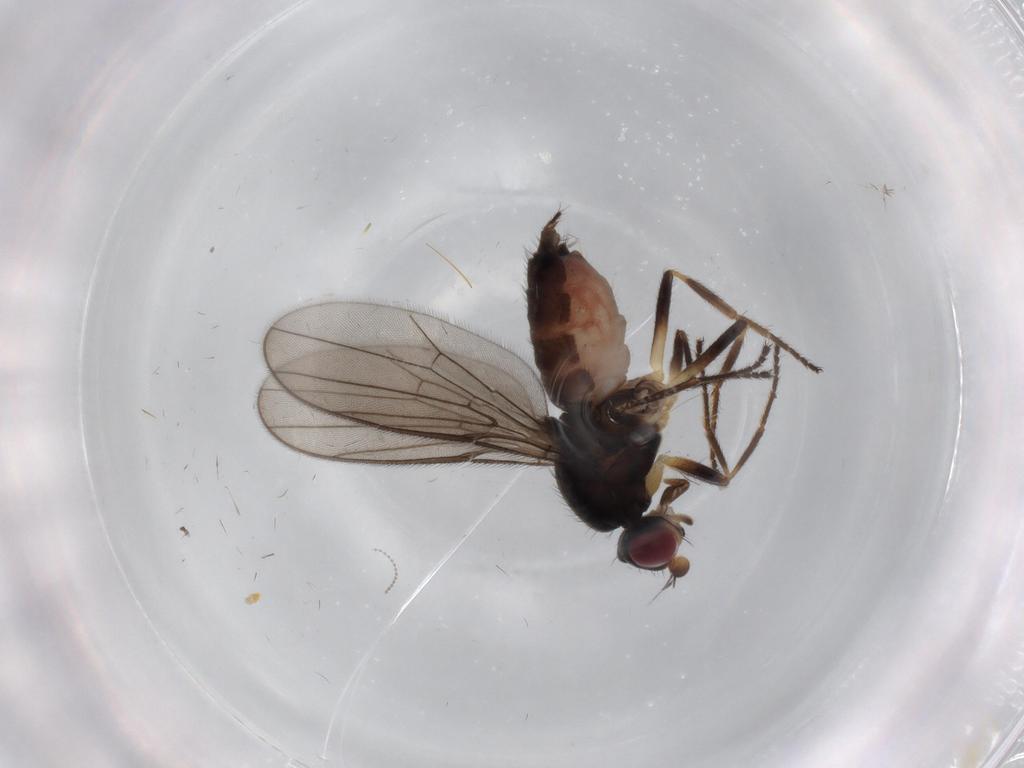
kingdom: Animalia
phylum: Arthropoda
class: Insecta
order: Diptera
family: Chloropidae
